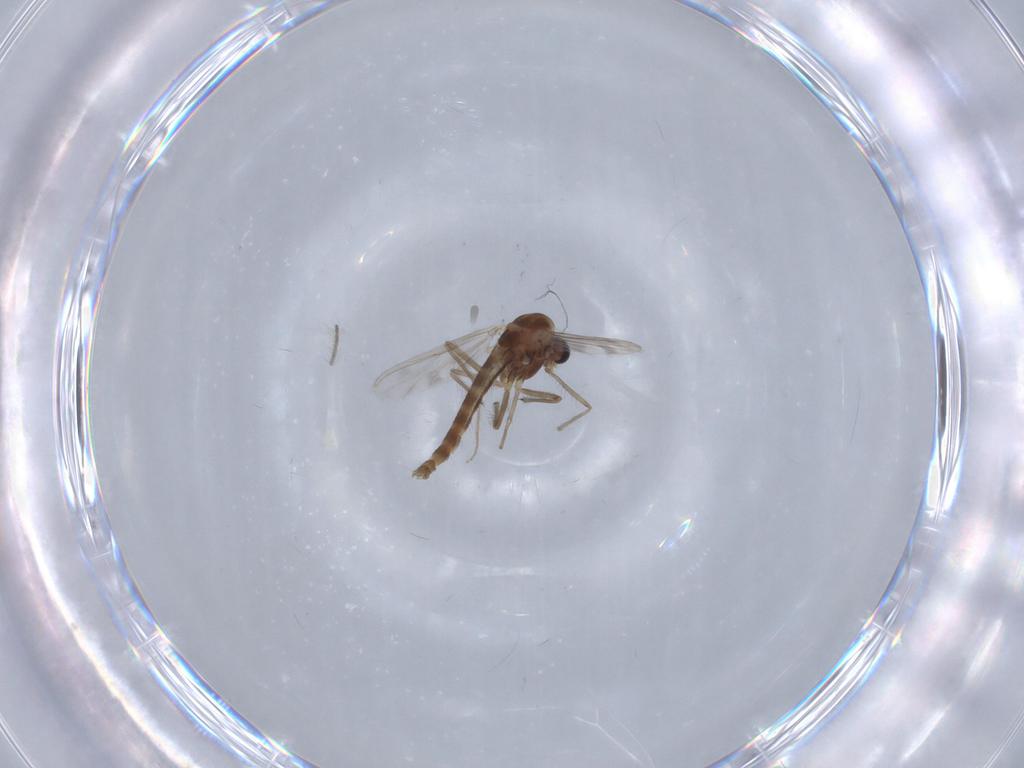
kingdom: Animalia
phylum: Arthropoda
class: Insecta
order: Diptera
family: Chironomidae
